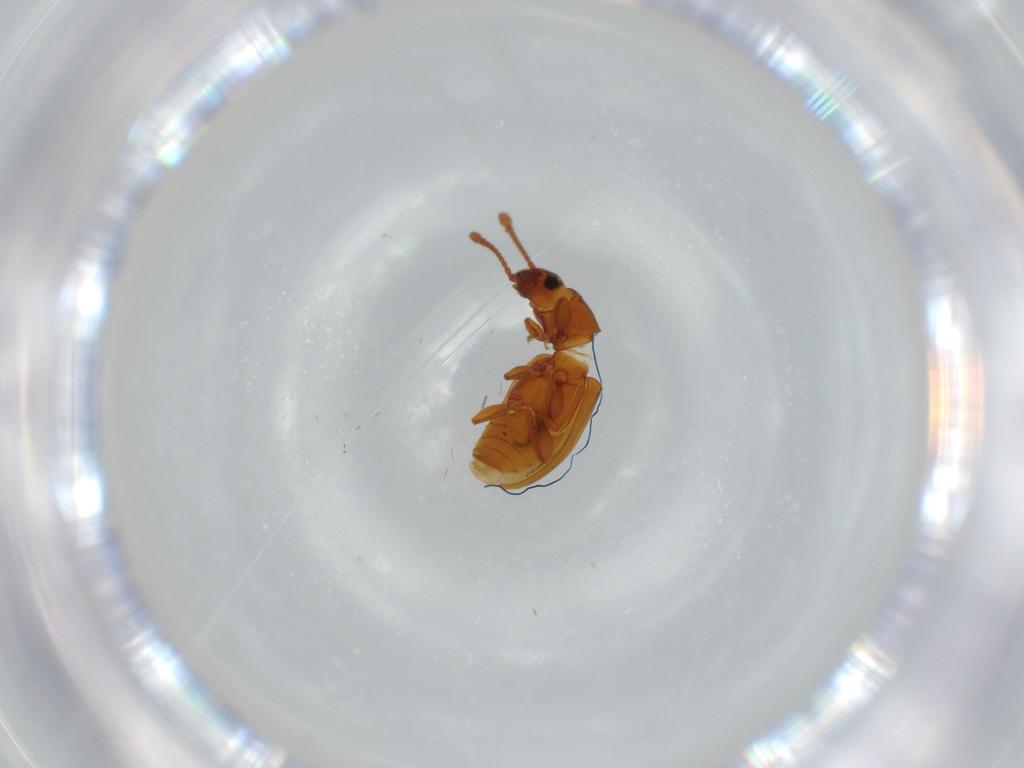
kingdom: Animalia
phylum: Arthropoda
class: Insecta
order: Coleoptera
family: Silvanidae
